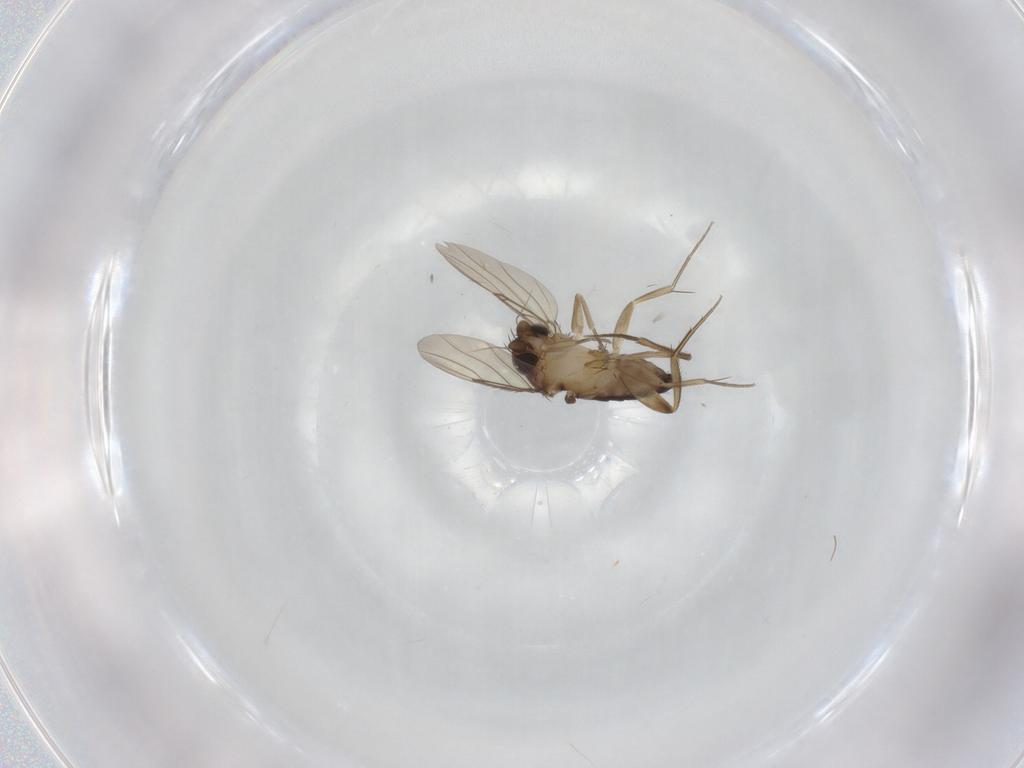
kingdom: Animalia
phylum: Arthropoda
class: Insecta
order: Diptera
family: Phoridae
